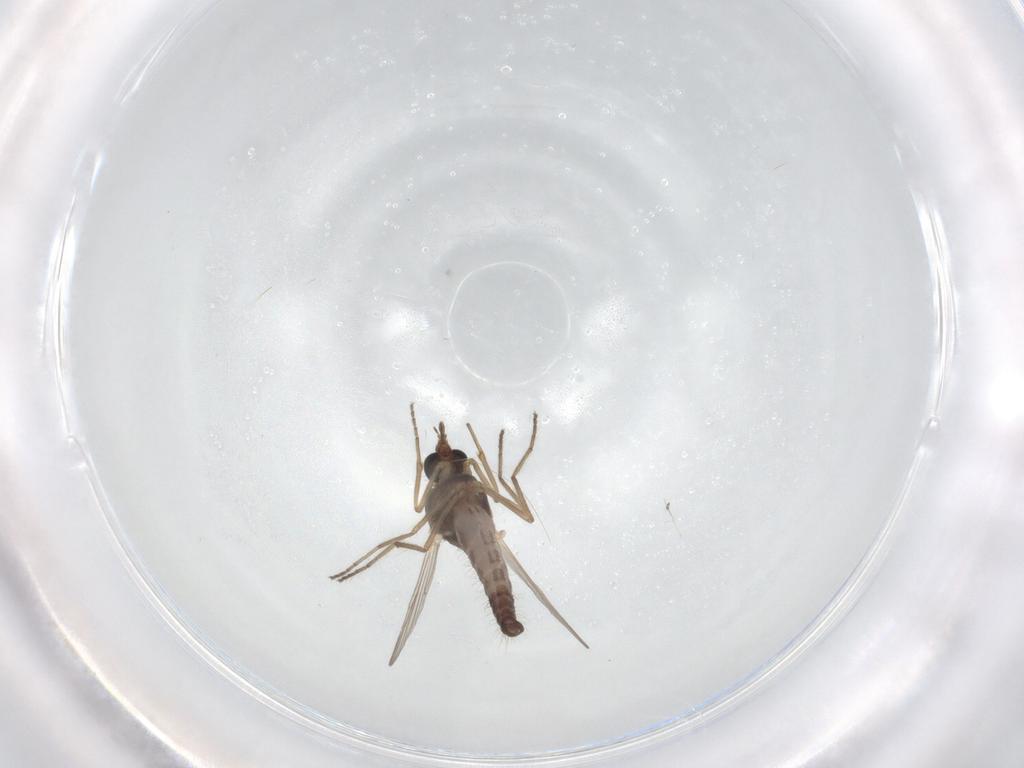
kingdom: Animalia
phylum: Arthropoda
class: Insecta
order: Diptera
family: Ceratopogonidae
